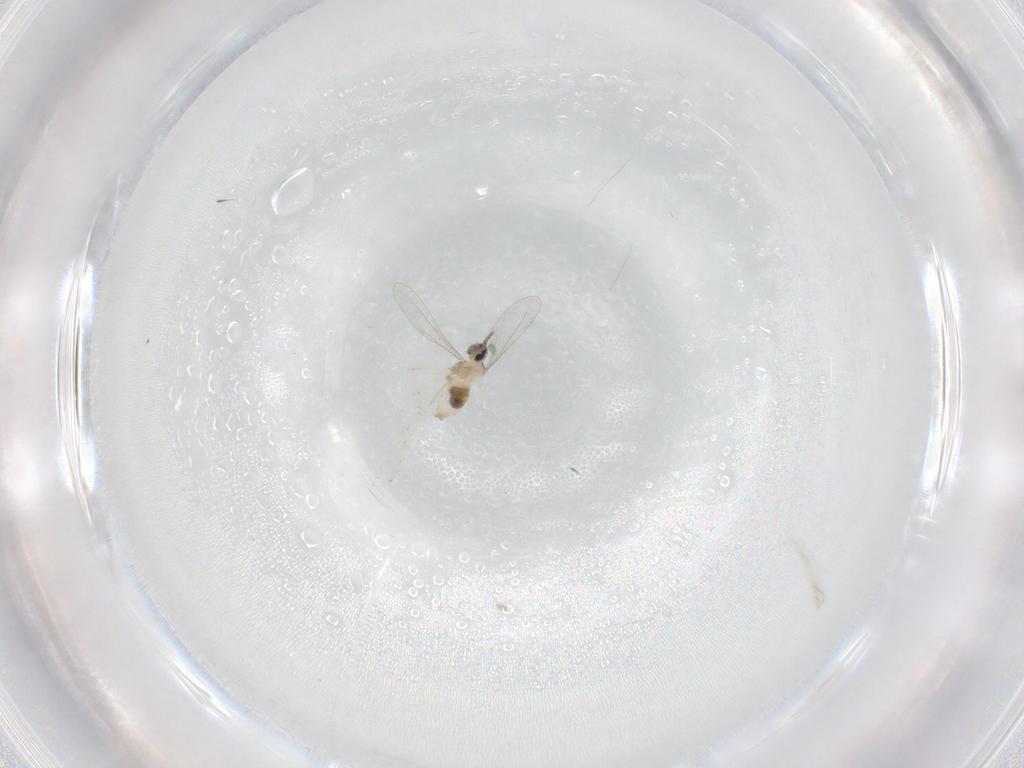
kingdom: Animalia
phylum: Arthropoda
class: Insecta
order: Diptera
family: Cecidomyiidae
